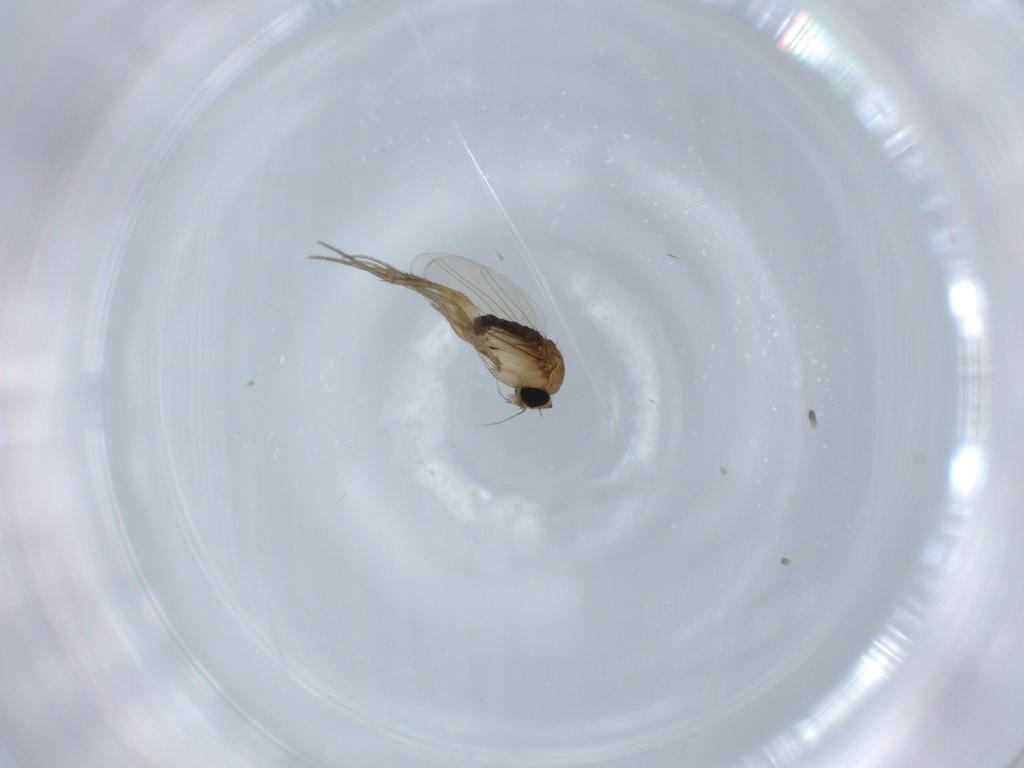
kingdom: Animalia
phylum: Arthropoda
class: Insecta
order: Diptera
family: Phoridae
